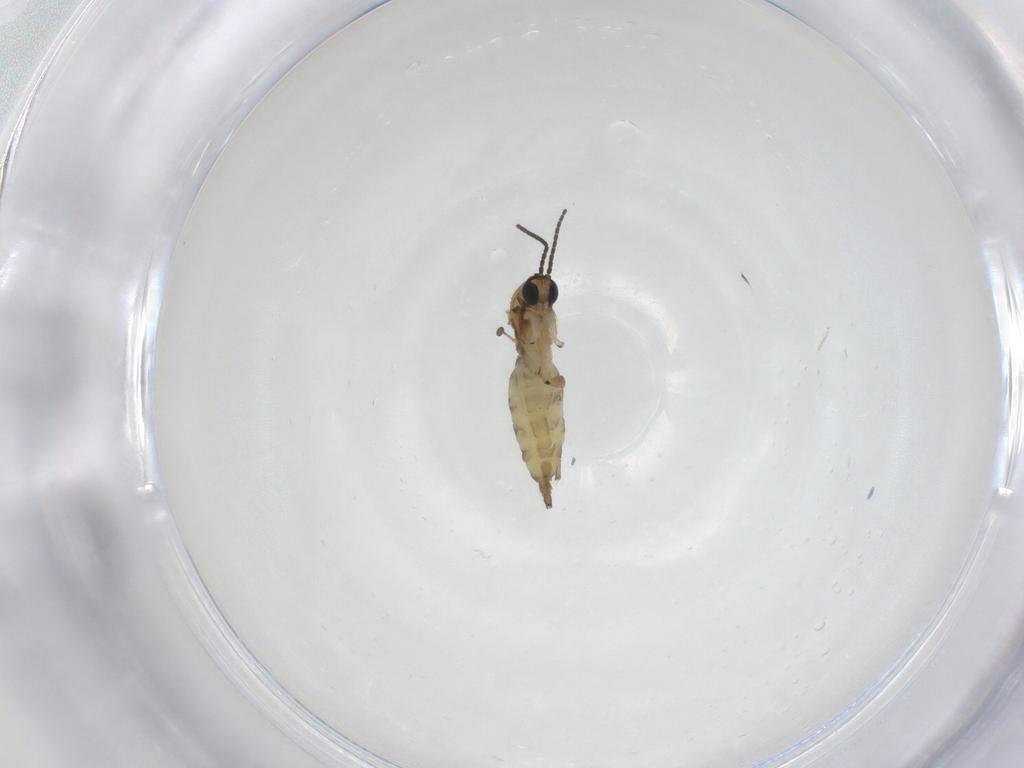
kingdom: Animalia
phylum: Arthropoda
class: Insecta
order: Diptera
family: Sciaridae
